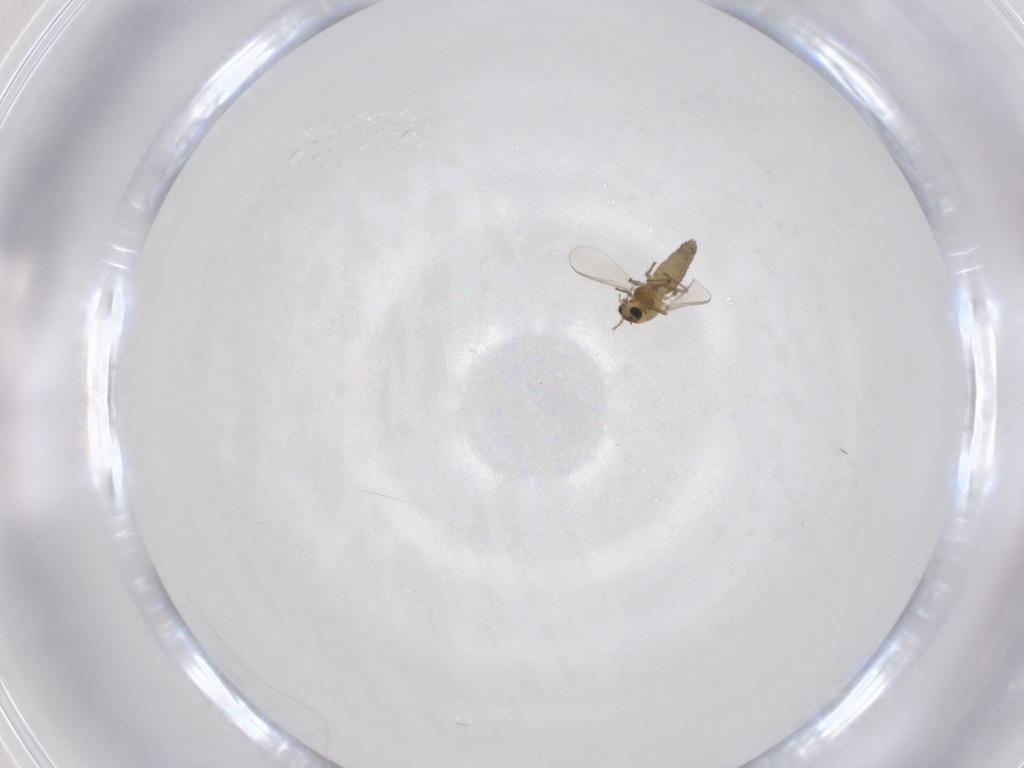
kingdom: Animalia
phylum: Arthropoda
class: Insecta
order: Diptera
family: Chironomidae
